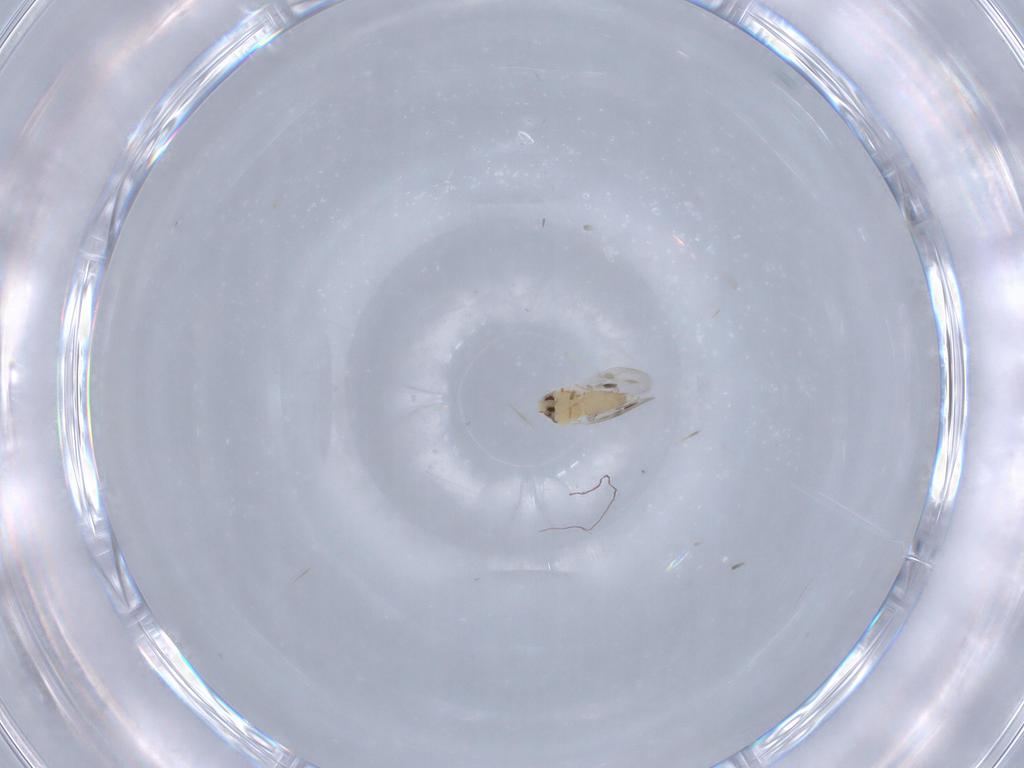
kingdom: Animalia
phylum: Arthropoda
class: Insecta
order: Hemiptera
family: Aleyrodidae
